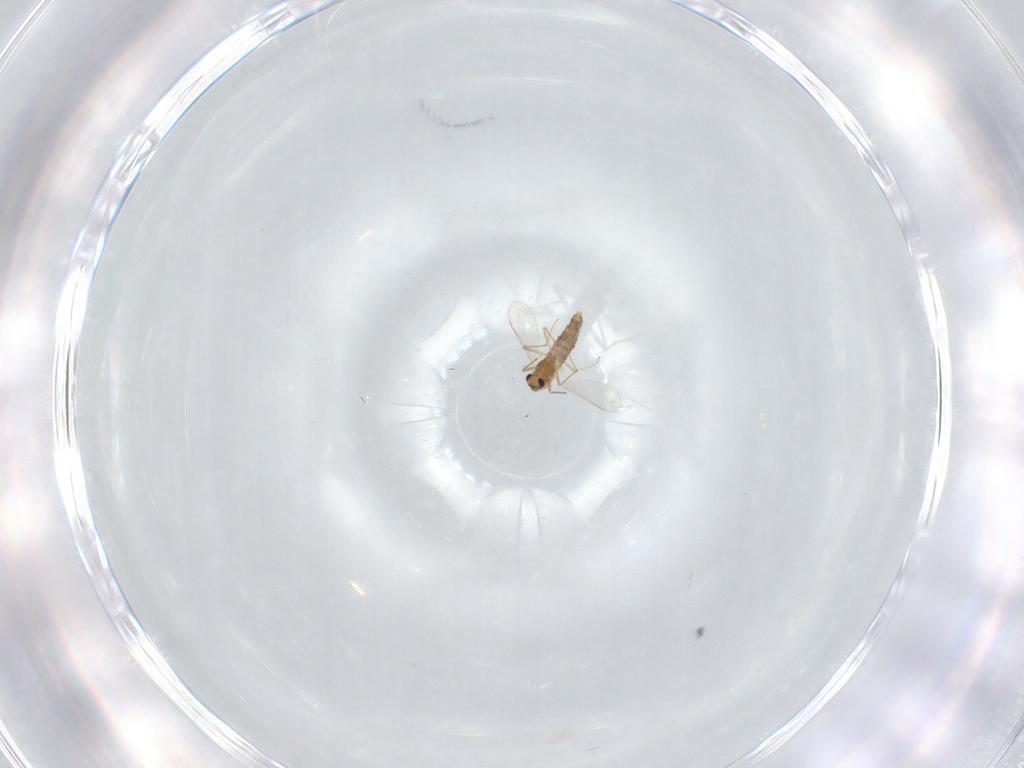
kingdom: Animalia
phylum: Arthropoda
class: Insecta
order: Diptera
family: Chironomidae
